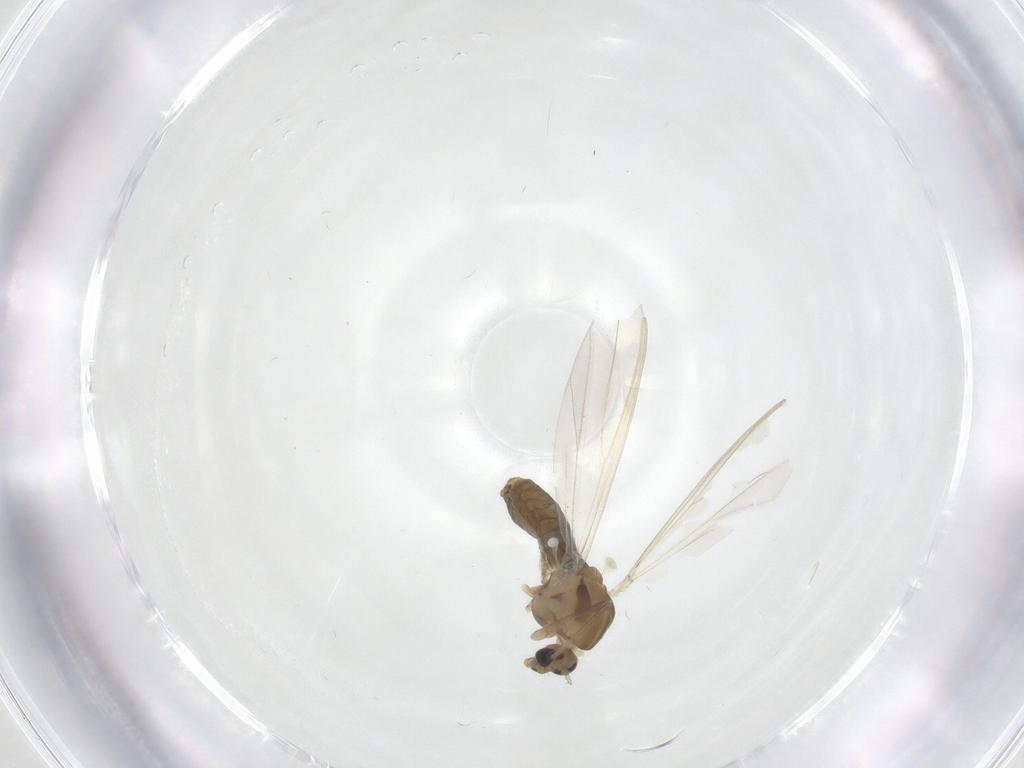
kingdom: Animalia
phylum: Arthropoda
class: Insecta
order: Diptera
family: Chironomidae
